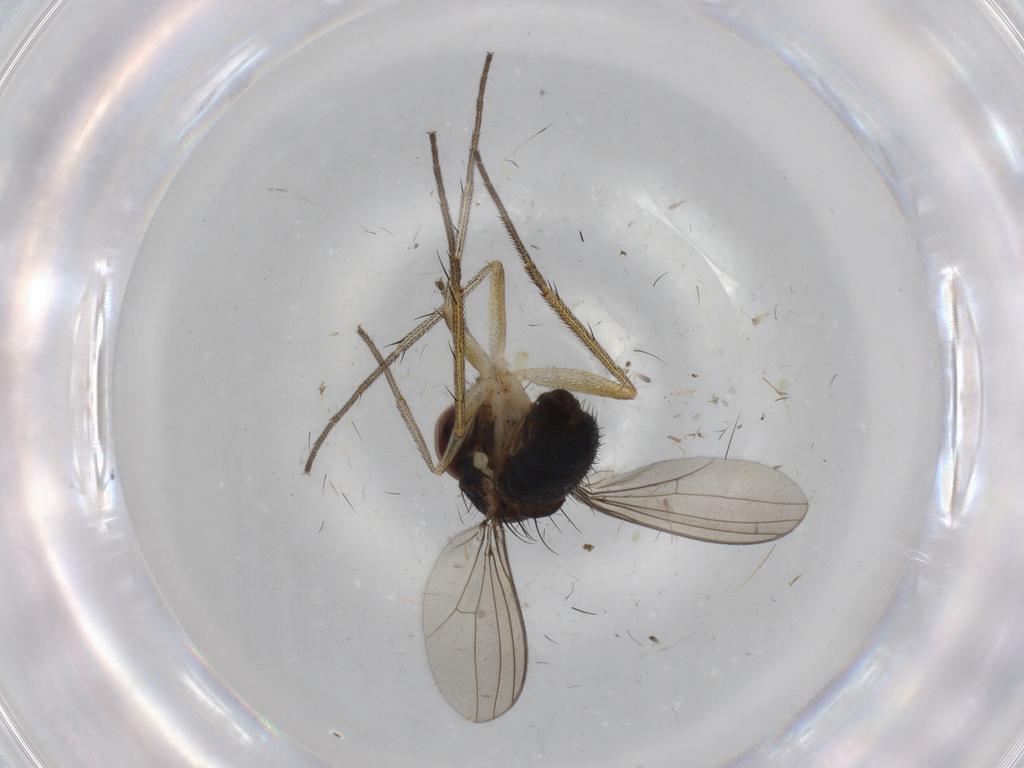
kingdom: Animalia
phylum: Arthropoda
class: Insecta
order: Diptera
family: Dolichopodidae
